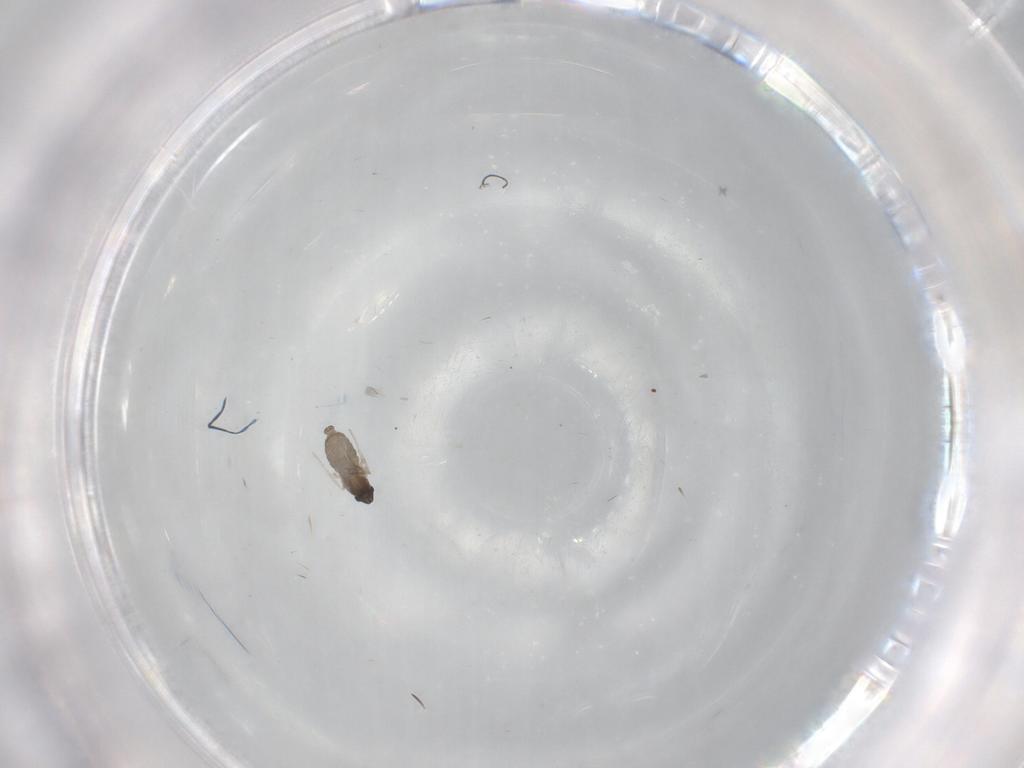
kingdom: Animalia
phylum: Arthropoda
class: Insecta
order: Diptera
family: Cecidomyiidae
